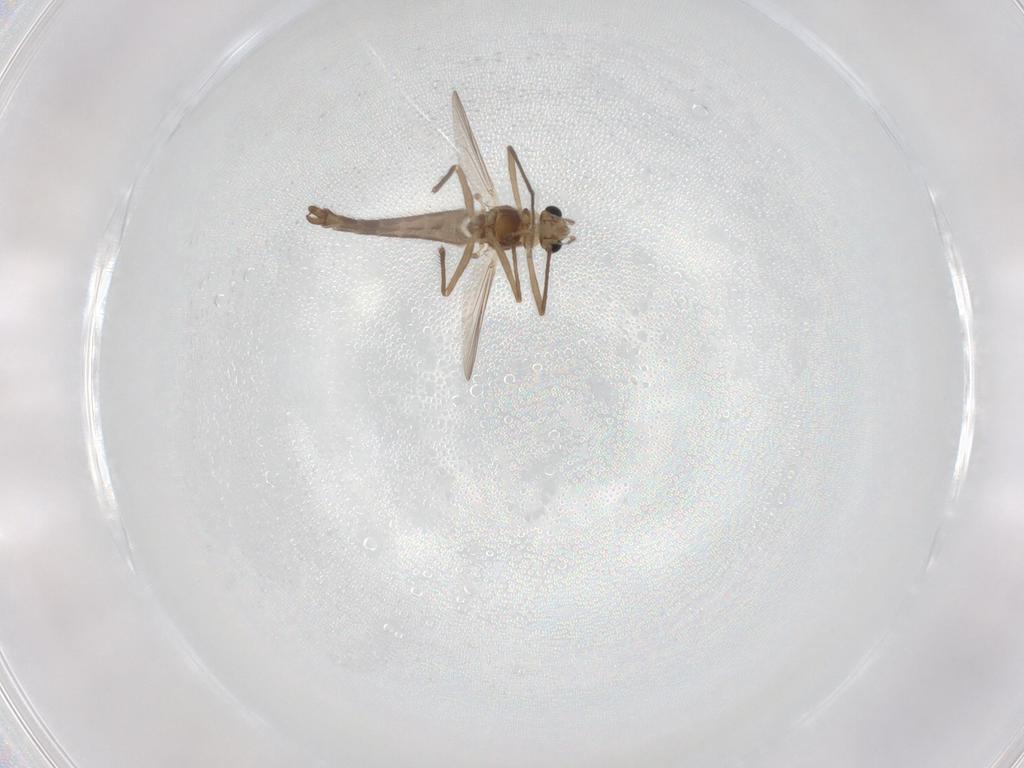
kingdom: Animalia
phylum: Arthropoda
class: Insecta
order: Diptera
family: Chironomidae
